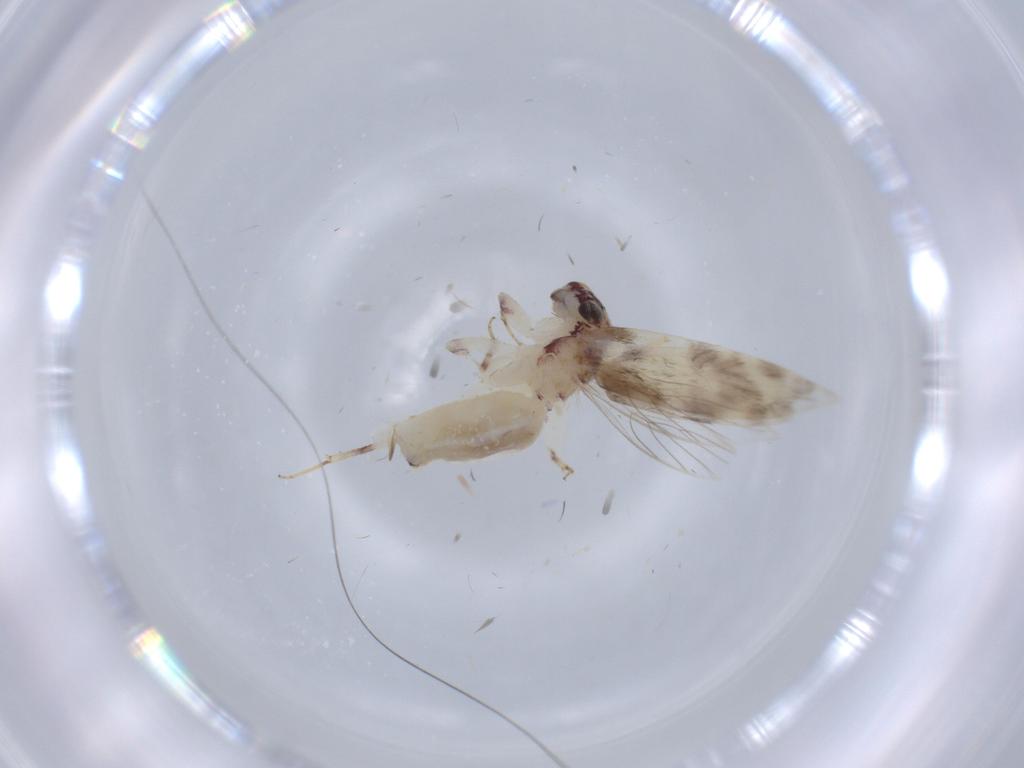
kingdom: Animalia
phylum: Arthropoda
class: Insecta
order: Psocodea
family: Lepidopsocidae
